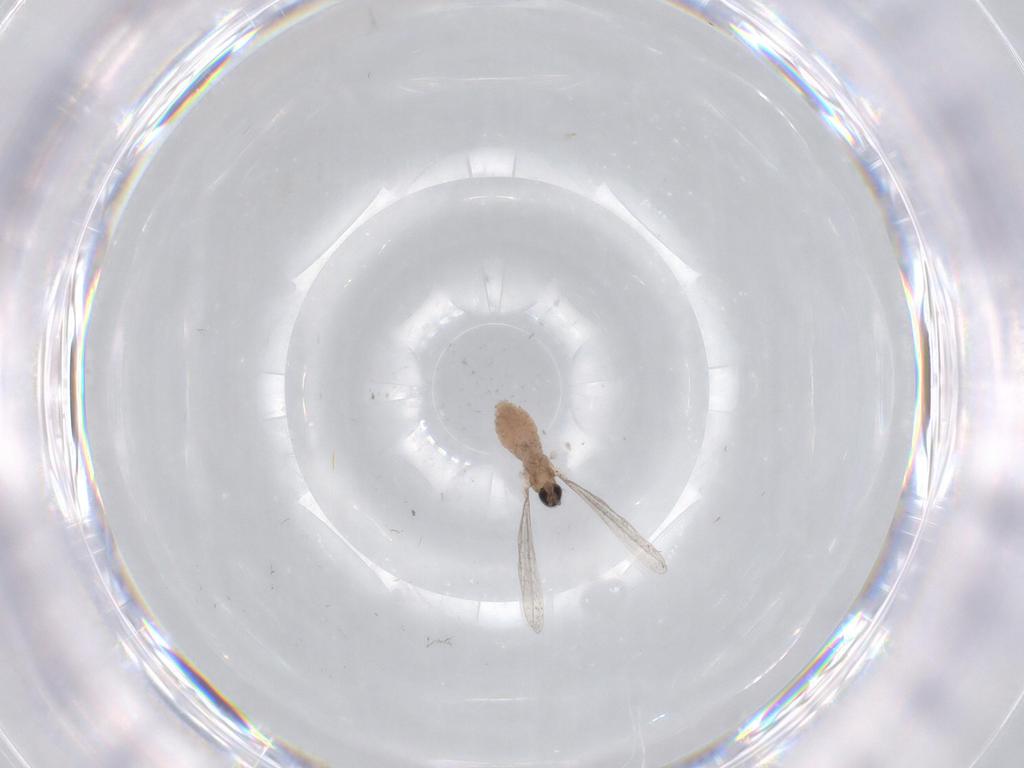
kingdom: Animalia
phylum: Arthropoda
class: Insecta
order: Diptera
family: Cecidomyiidae
